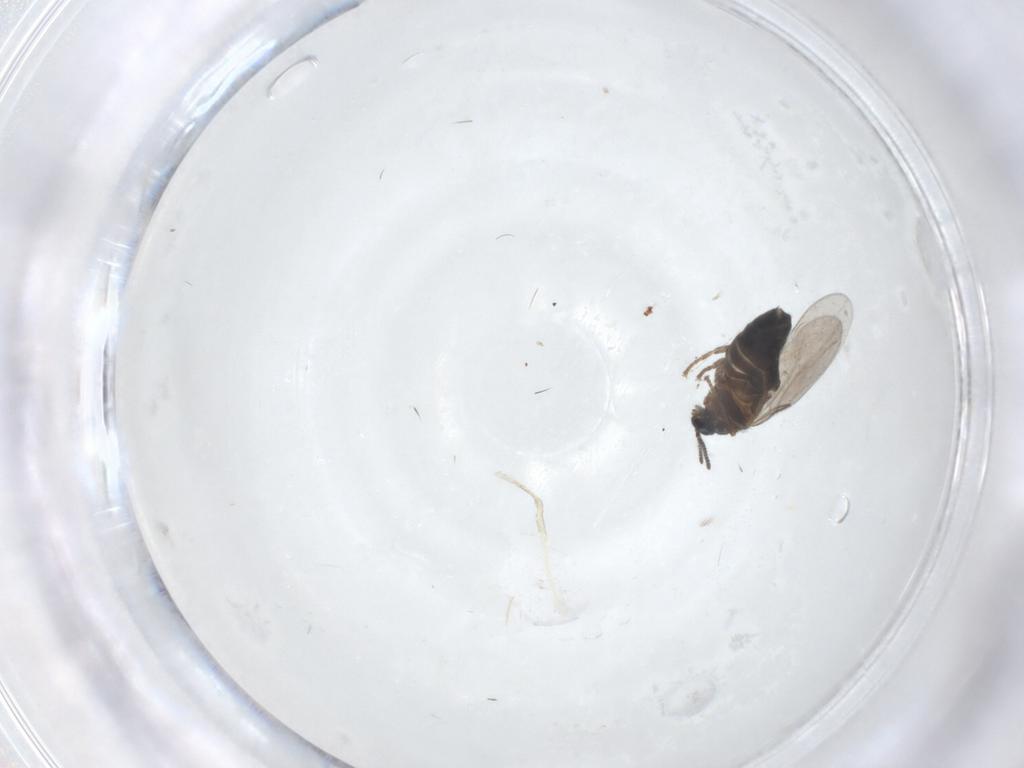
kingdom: Animalia
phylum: Arthropoda
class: Insecta
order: Diptera
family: Scatopsidae
